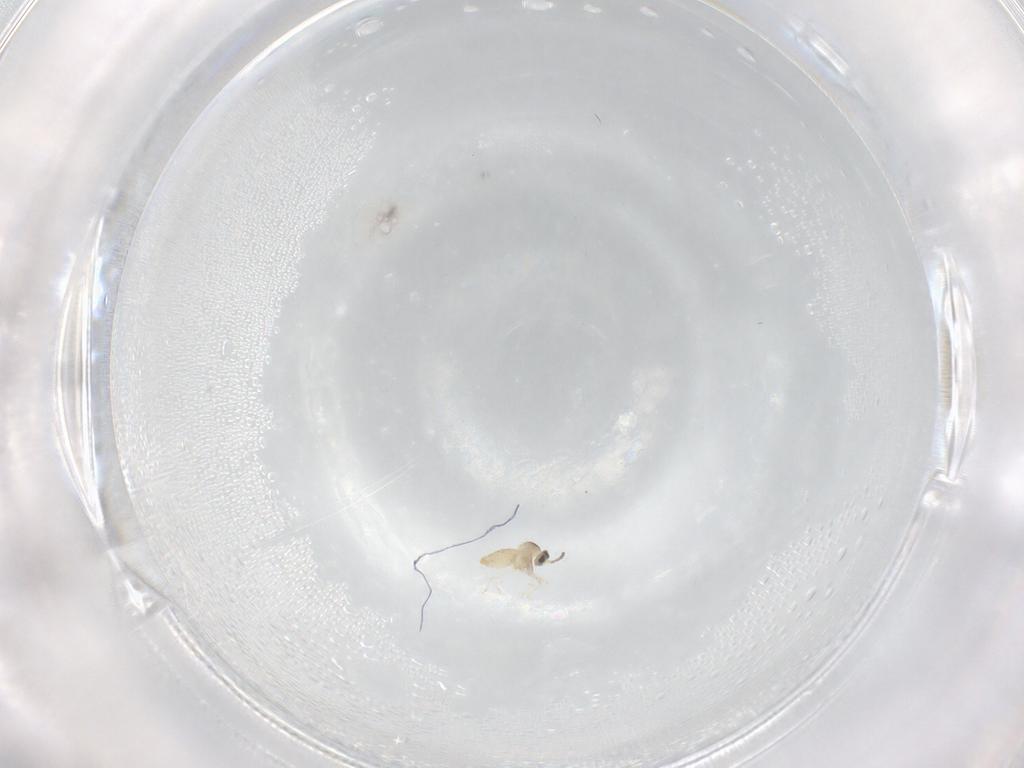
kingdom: Animalia
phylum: Arthropoda
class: Insecta
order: Diptera
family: Cecidomyiidae
